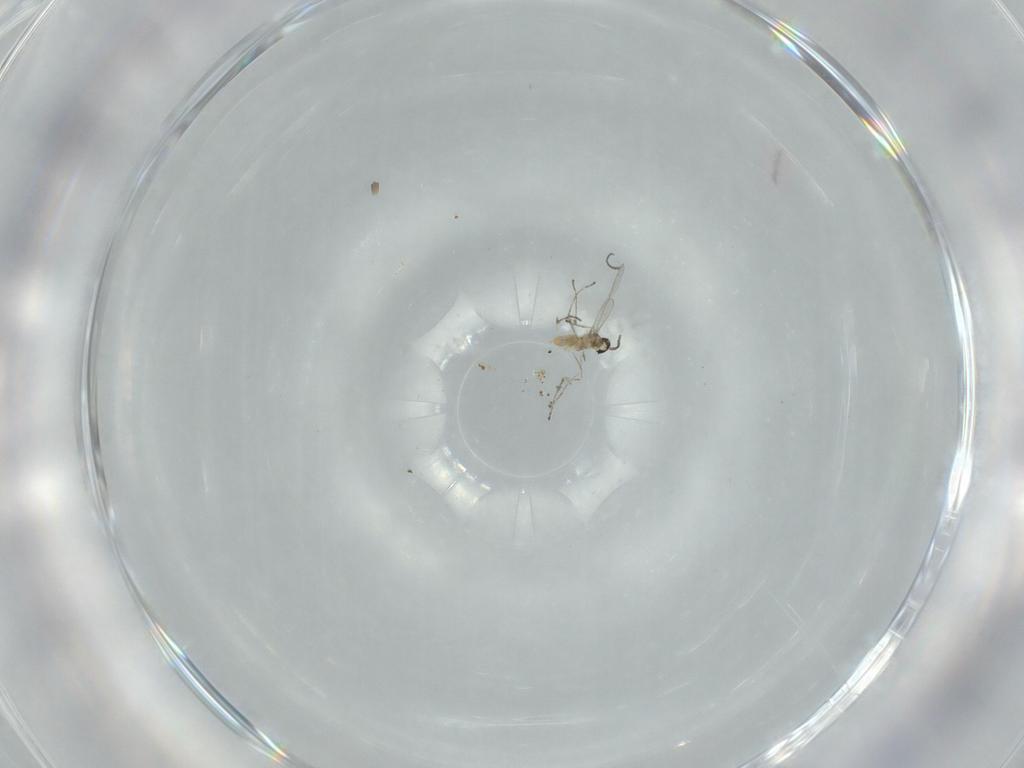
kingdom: Animalia
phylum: Arthropoda
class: Insecta
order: Diptera
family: Cecidomyiidae
